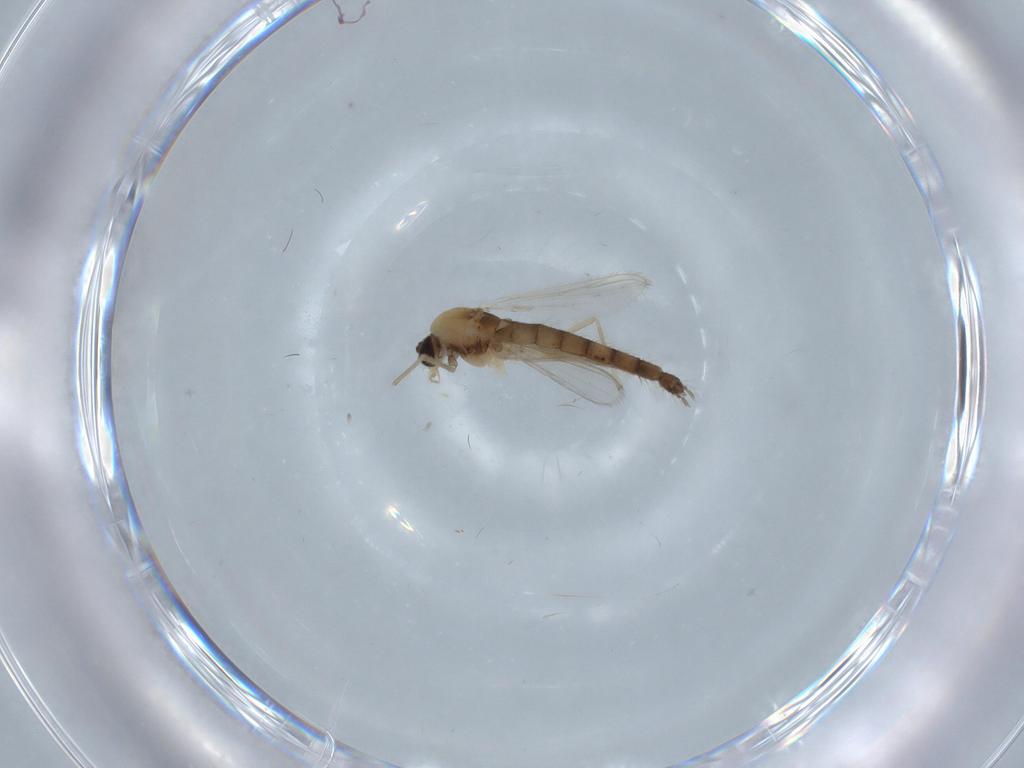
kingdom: Animalia
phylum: Arthropoda
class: Insecta
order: Diptera
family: Chironomidae
